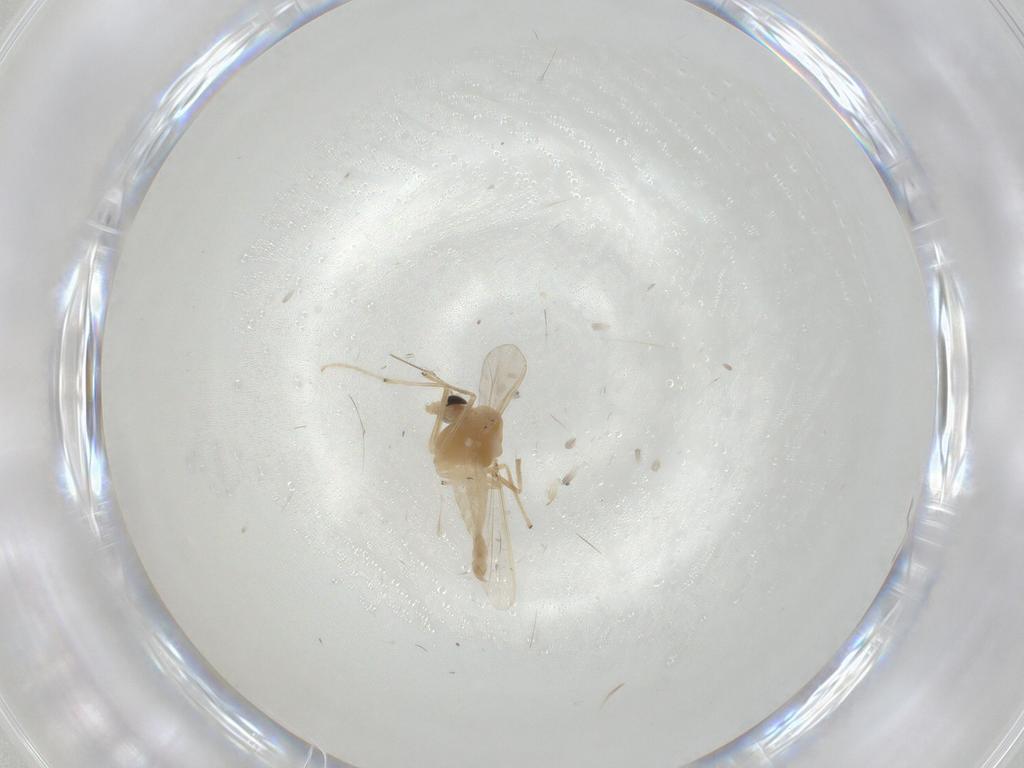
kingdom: Animalia
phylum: Arthropoda
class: Insecta
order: Diptera
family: Chironomidae
